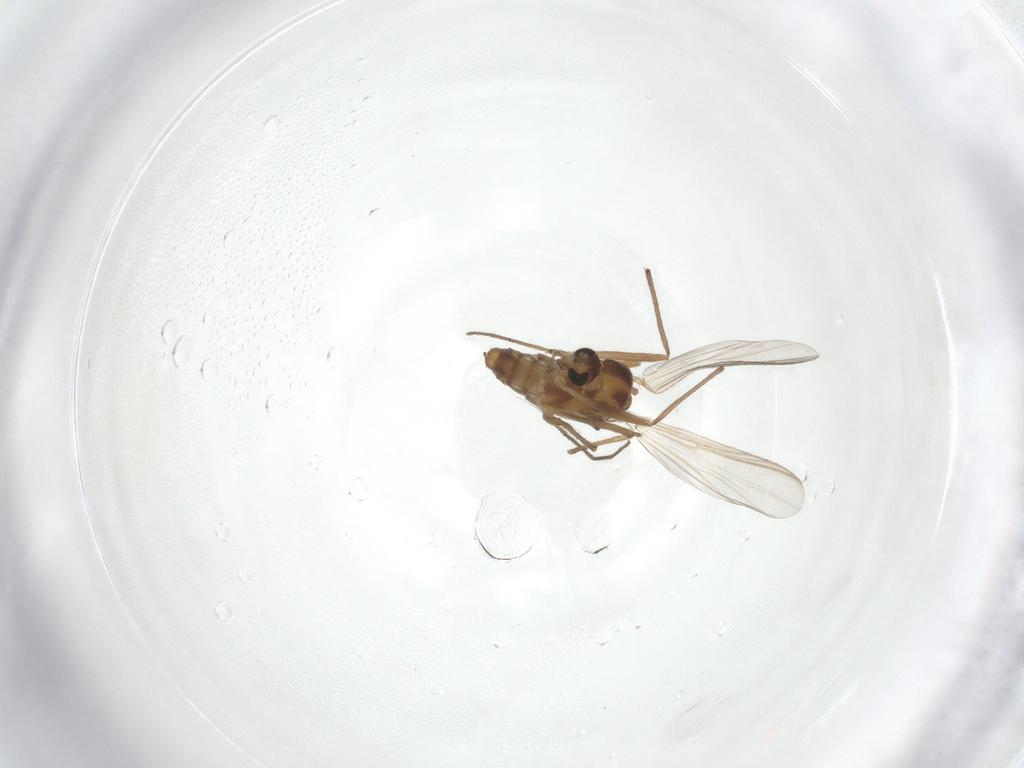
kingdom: Animalia
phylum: Arthropoda
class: Insecta
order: Diptera
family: Chironomidae
